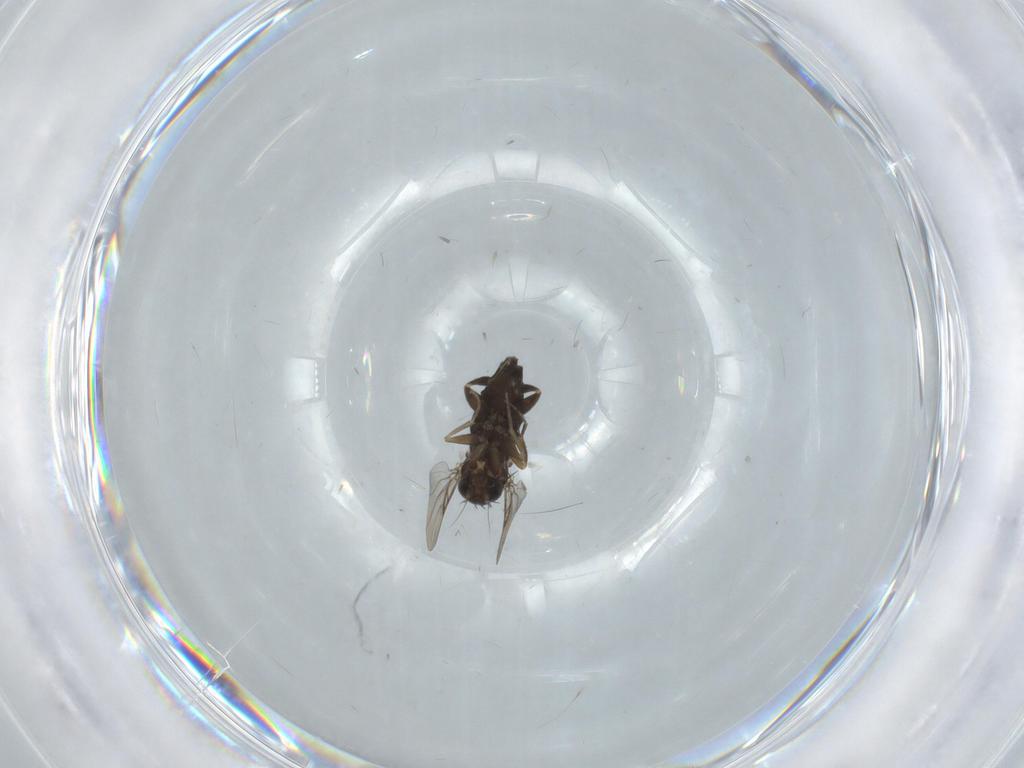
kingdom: Animalia
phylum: Arthropoda
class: Insecta
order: Diptera
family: Phoridae
